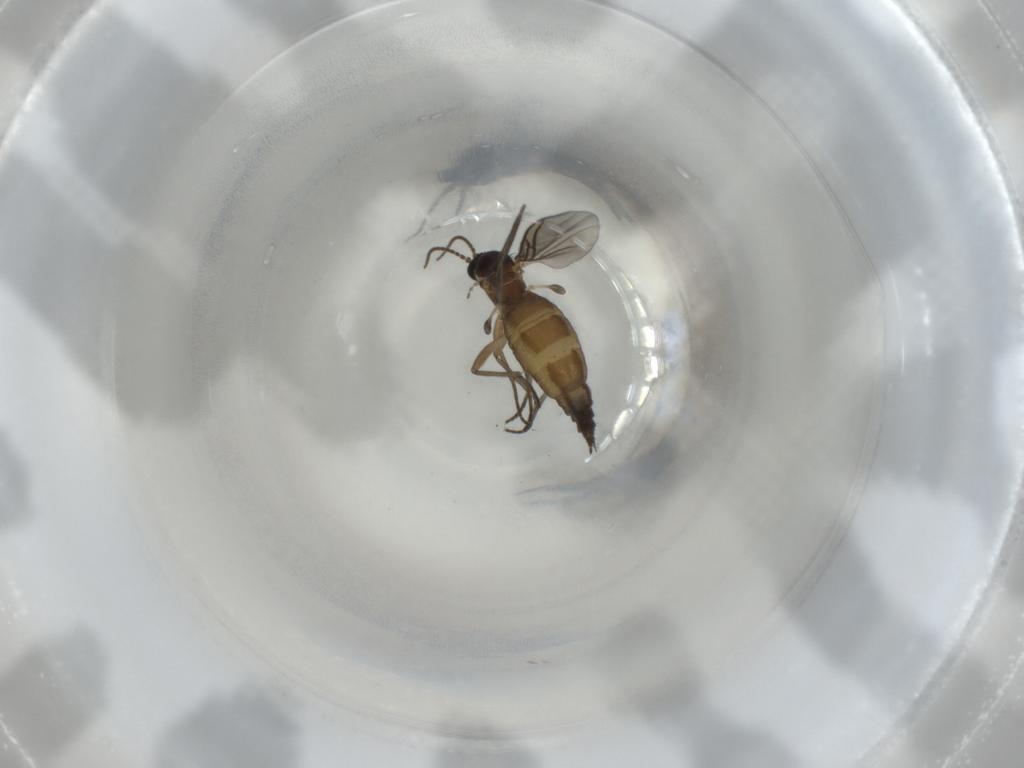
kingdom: Animalia
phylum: Arthropoda
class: Insecta
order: Diptera
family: Sciaridae
